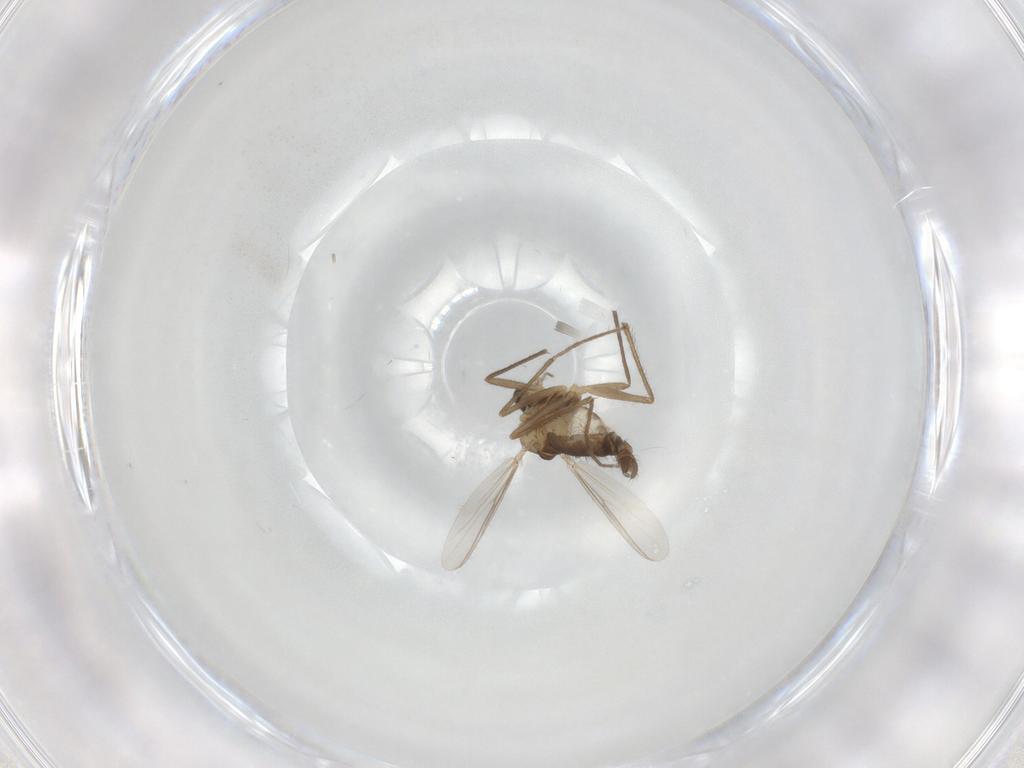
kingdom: Animalia
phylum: Arthropoda
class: Insecta
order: Diptera
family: Chironomidae
